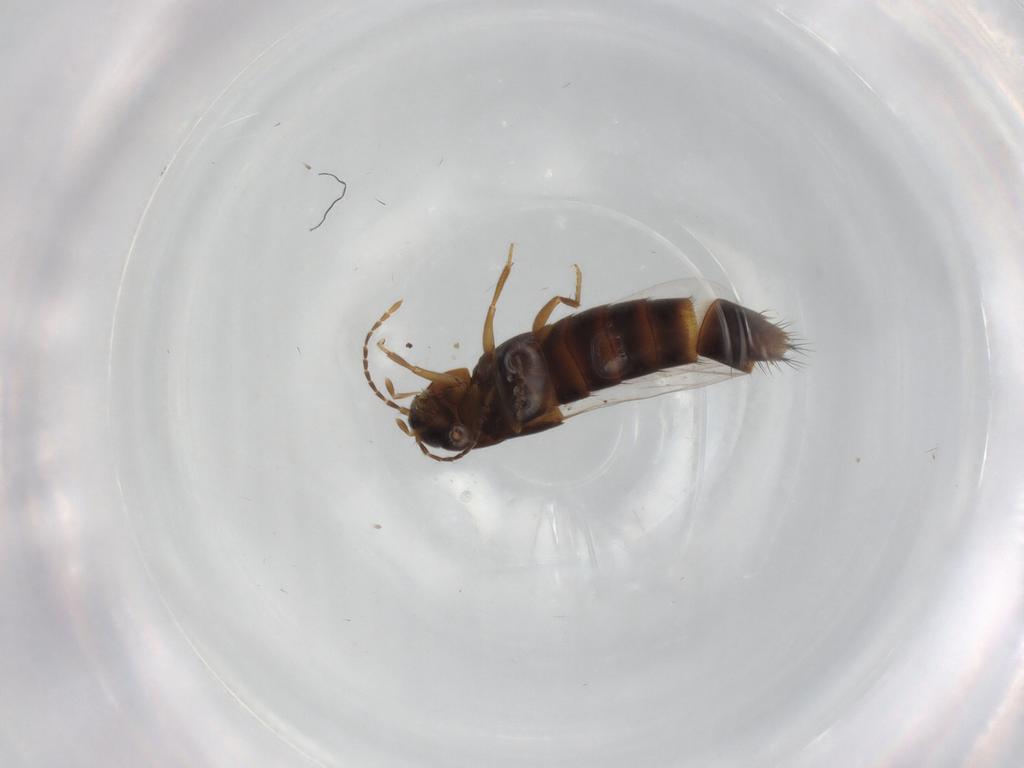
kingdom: Animalia
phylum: Arthropoda
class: Insecta
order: Coleoptera
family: Staphylinidae
